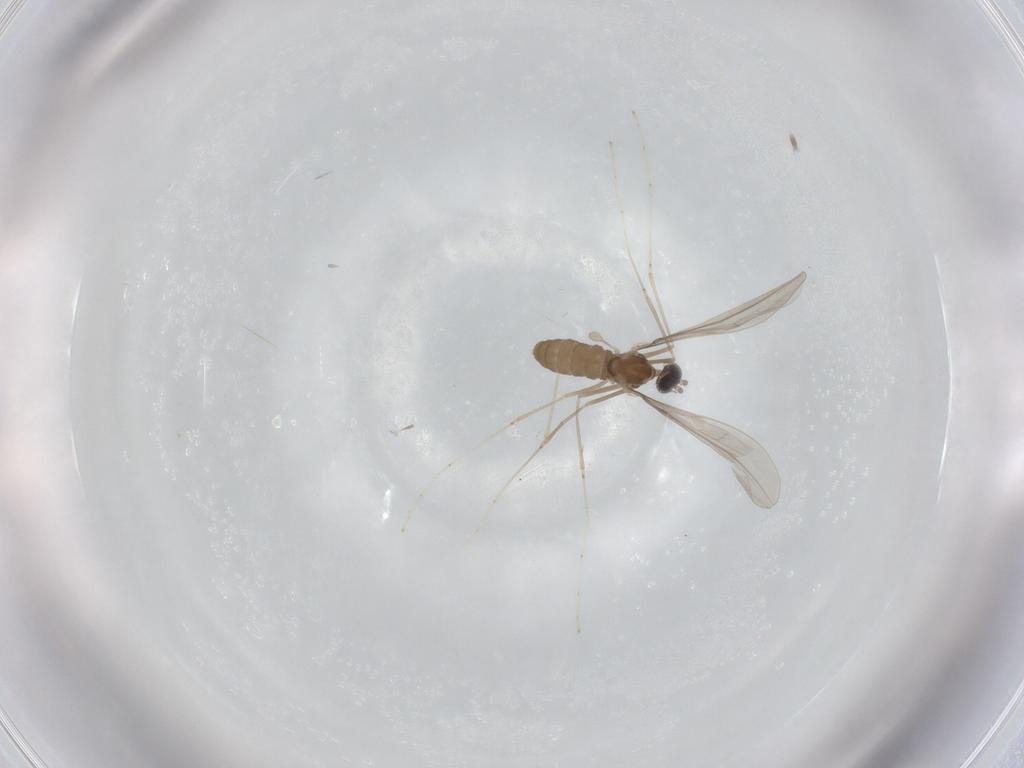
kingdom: Animalia
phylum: Arthropoda
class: Insecta
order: Diptera
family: Cecidomyiidae
